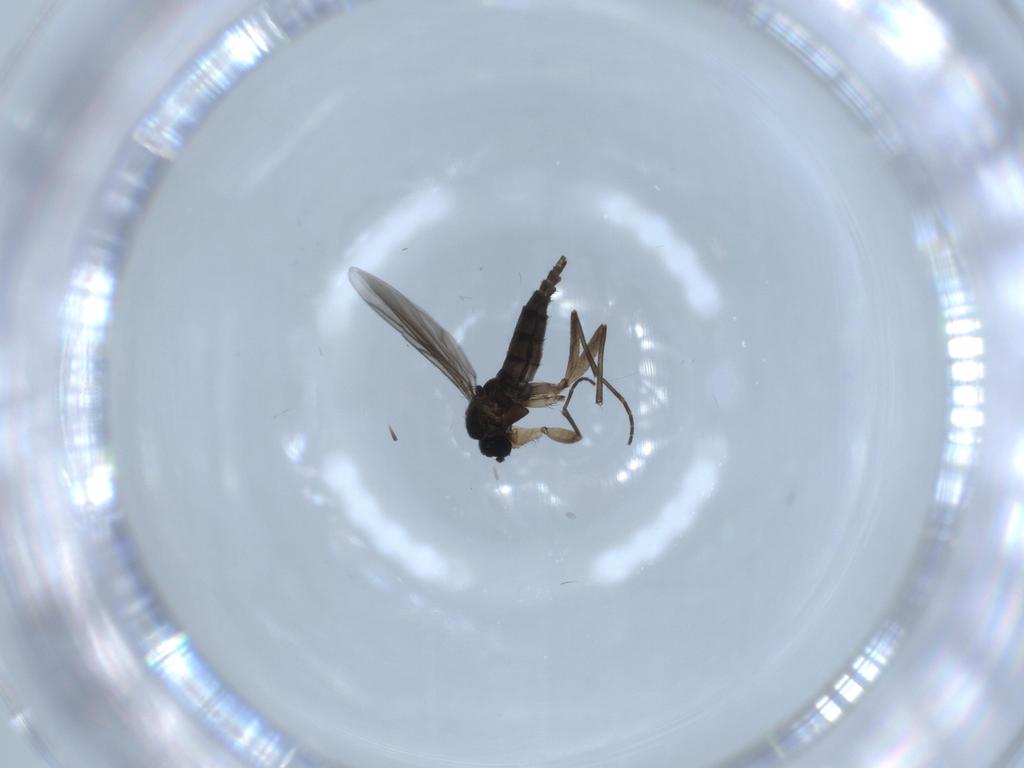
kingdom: Animalia
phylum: Arthropoda
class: Insecta
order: Diptera
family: Sciaridae
